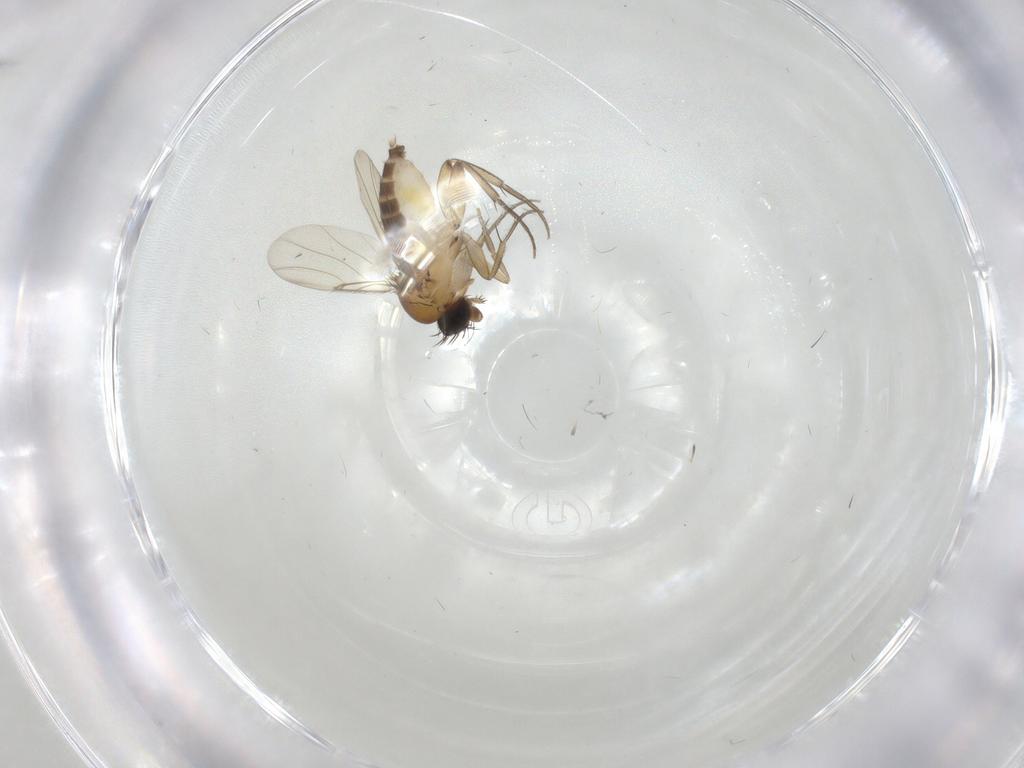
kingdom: Animalia
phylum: Arthropoda
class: Insecta
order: Diptera
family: Phoridae
